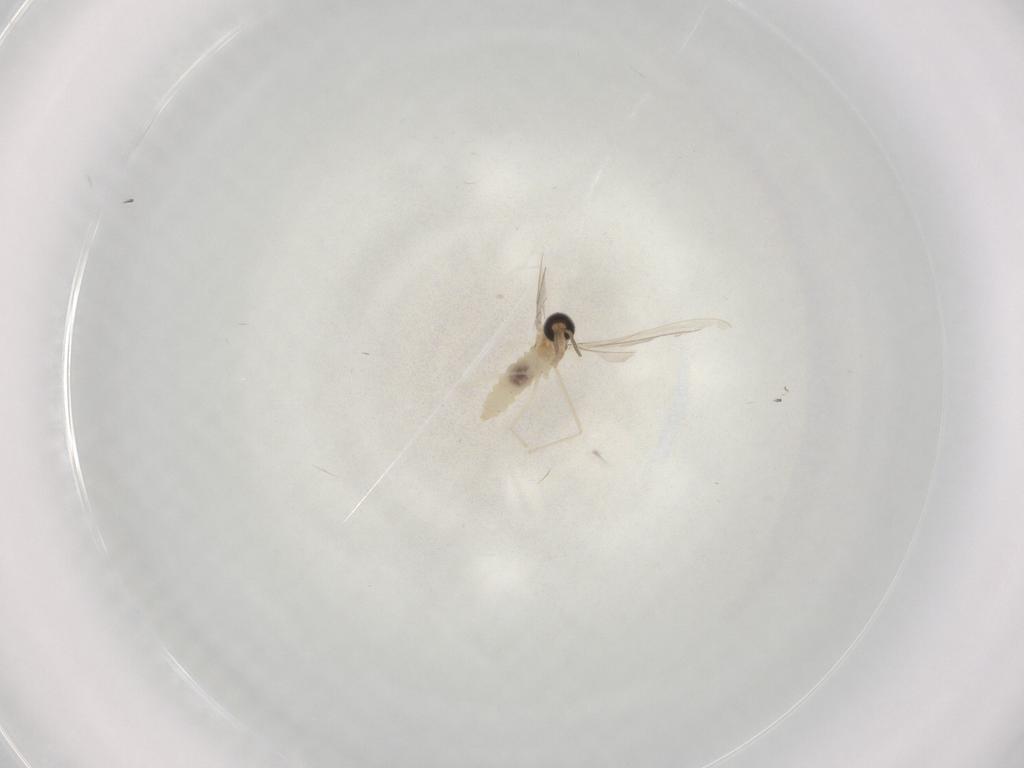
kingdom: Animalia
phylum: Arthropoda
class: Insecta
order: Diptera
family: Cecidomyiidae
